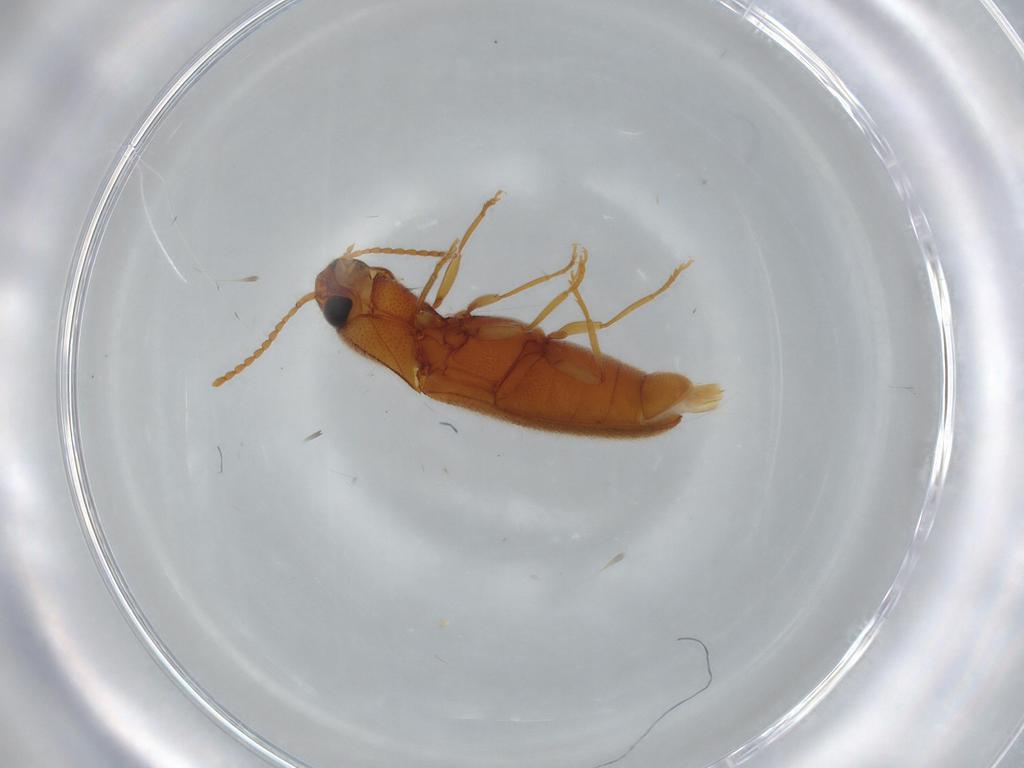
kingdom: Animalia
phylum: Arthropoda
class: Insecta
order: Coleoptera
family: Elateridae
